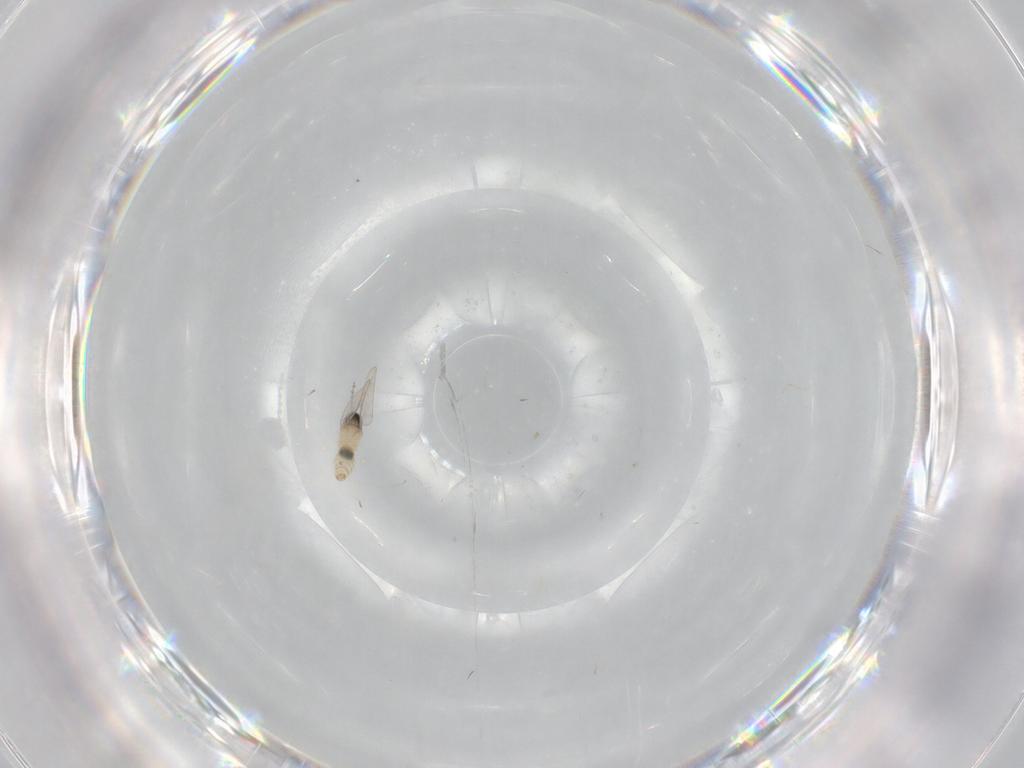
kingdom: Animalia
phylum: Arthropoda
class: Insecta
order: Diptera
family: Cecidomyiidae
